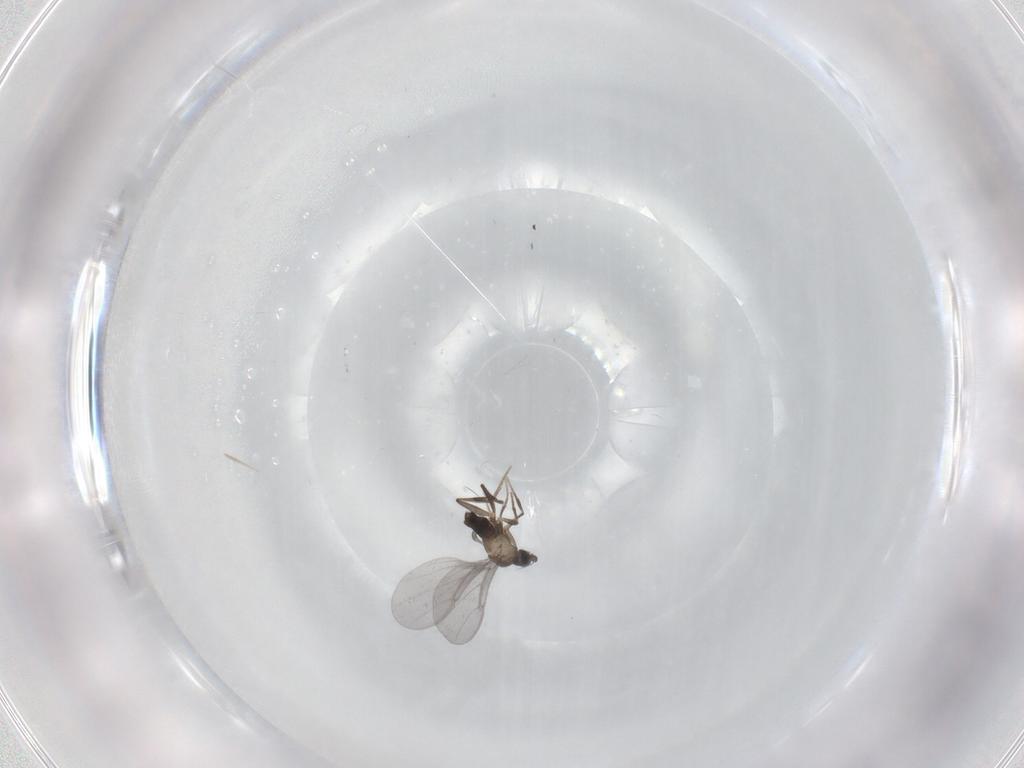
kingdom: Animalia
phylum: Arthropoda
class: Insecta
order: Diptera
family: Phoridae
